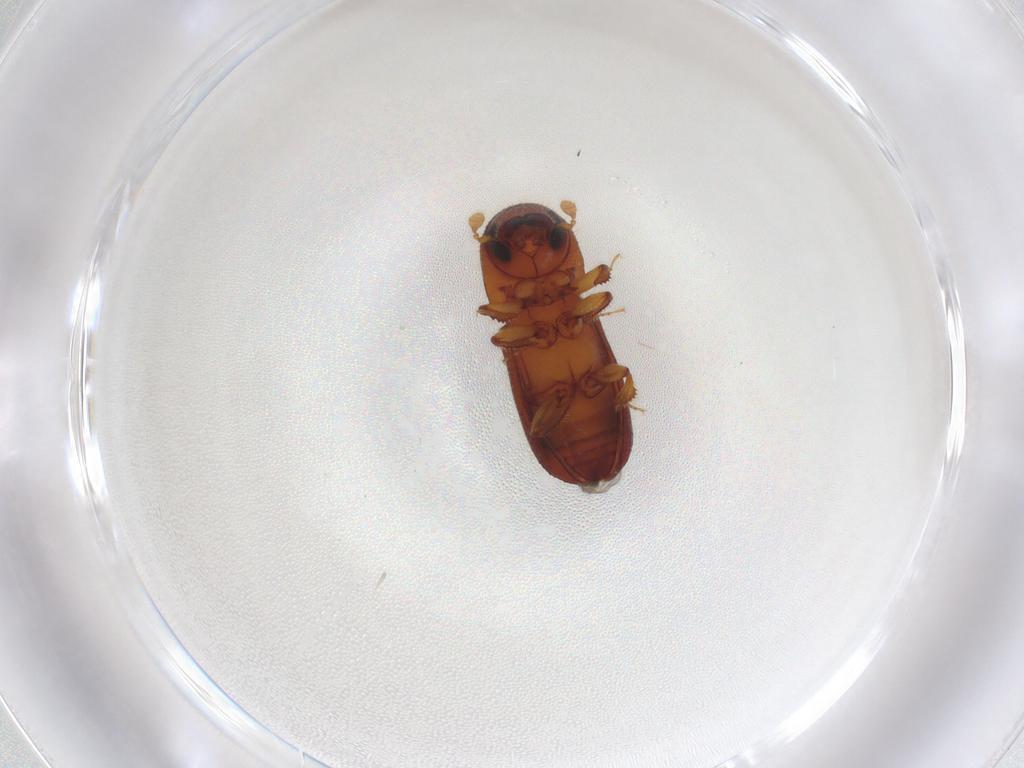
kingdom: Animalia
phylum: Arthropoda
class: Insecta
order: Coleoptera
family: Curculionidae
